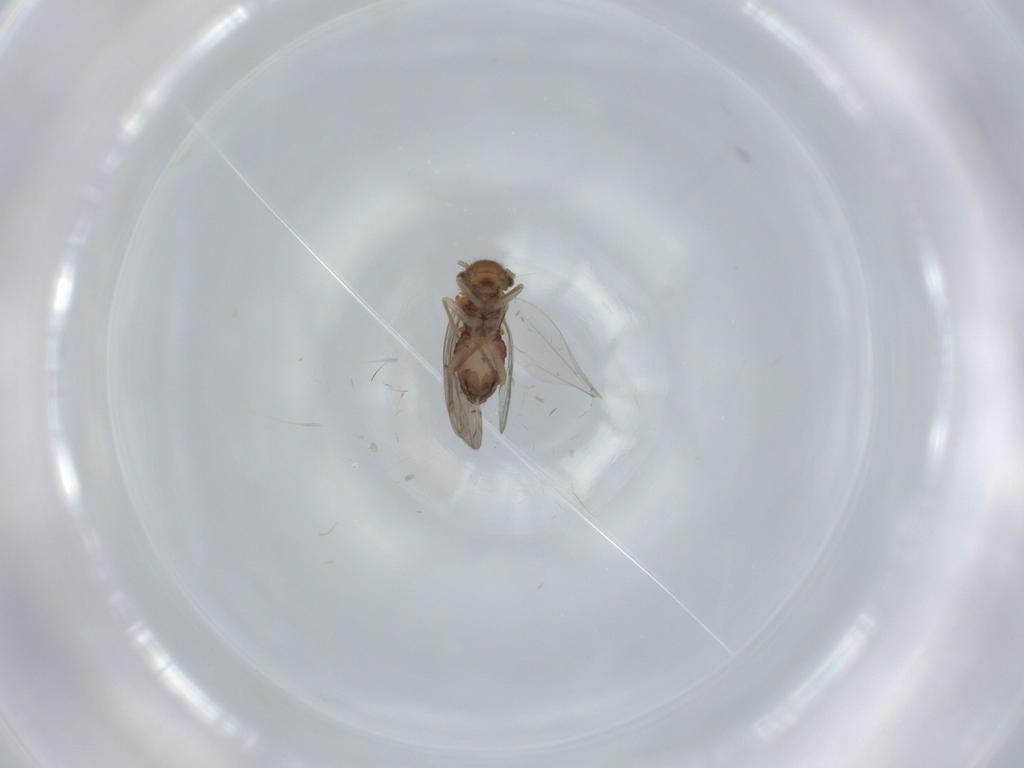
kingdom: Animalia
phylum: Arthropoda
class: Insecta
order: Psocodea
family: Ectopsocidae
